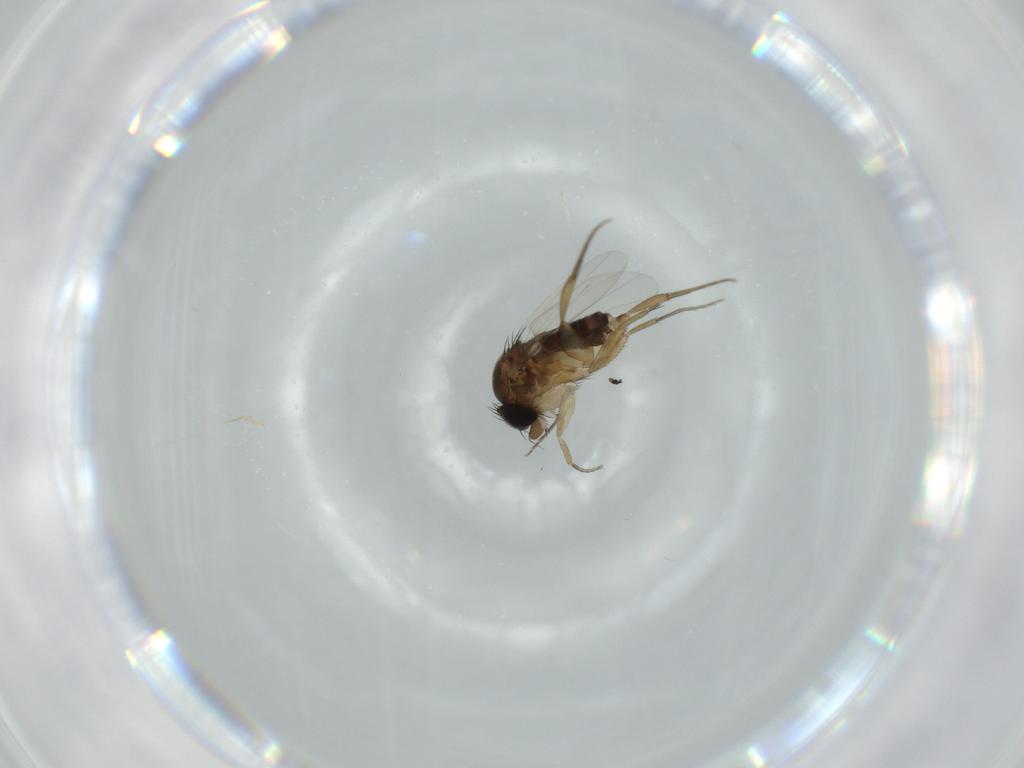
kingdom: Animalia
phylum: Arthropoda
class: Insecta
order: Diptera
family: Phoridae
